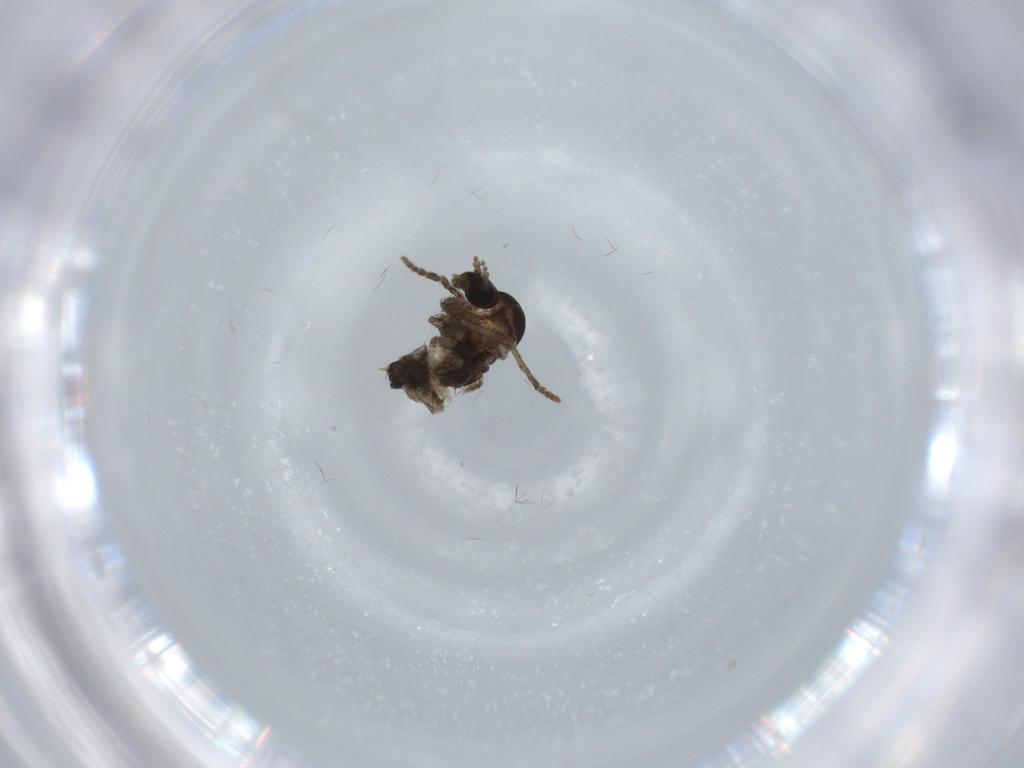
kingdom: Animalia
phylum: Arthropoda
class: Insecta
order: Diptera
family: Psychodidae
